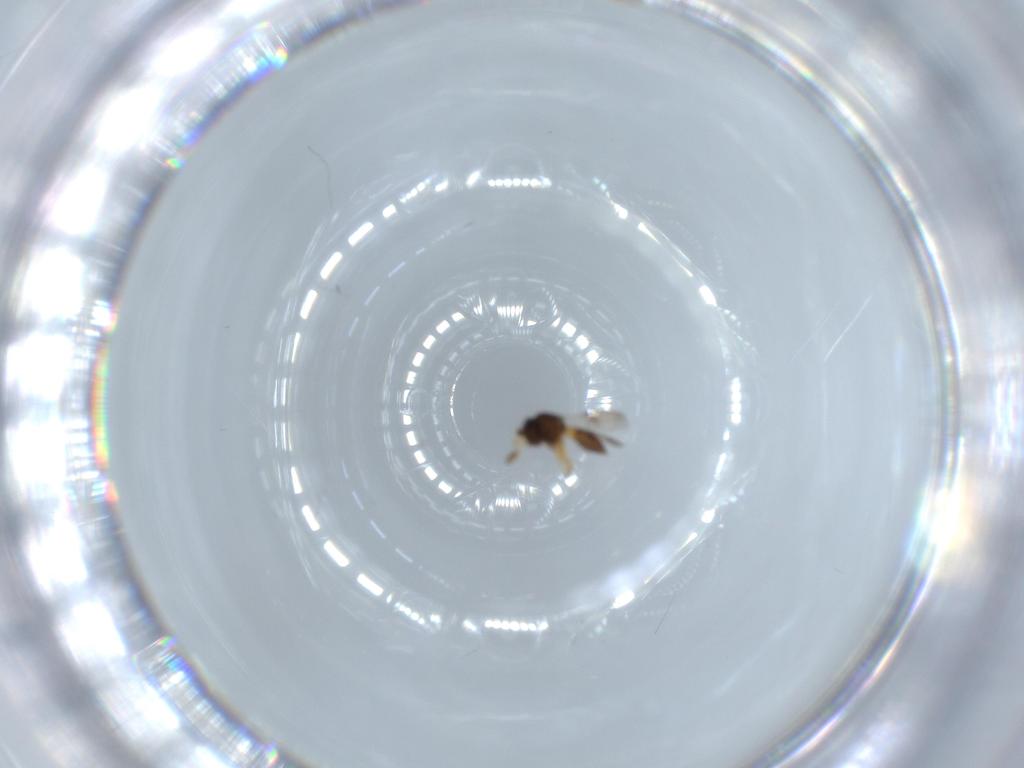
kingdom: Animalia
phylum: Arthropoda
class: Insecta
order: Hymenoptera
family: Scelionidae
